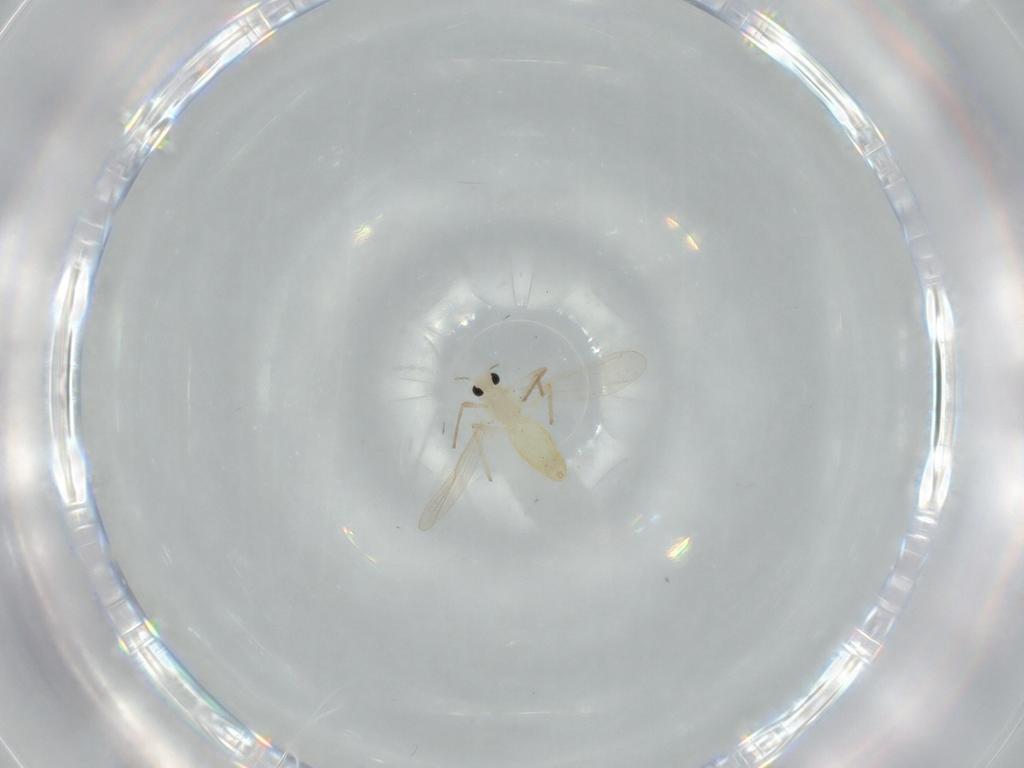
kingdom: Animalia
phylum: Arthropoda
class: Insecta
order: Diptera
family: Chironomidae
